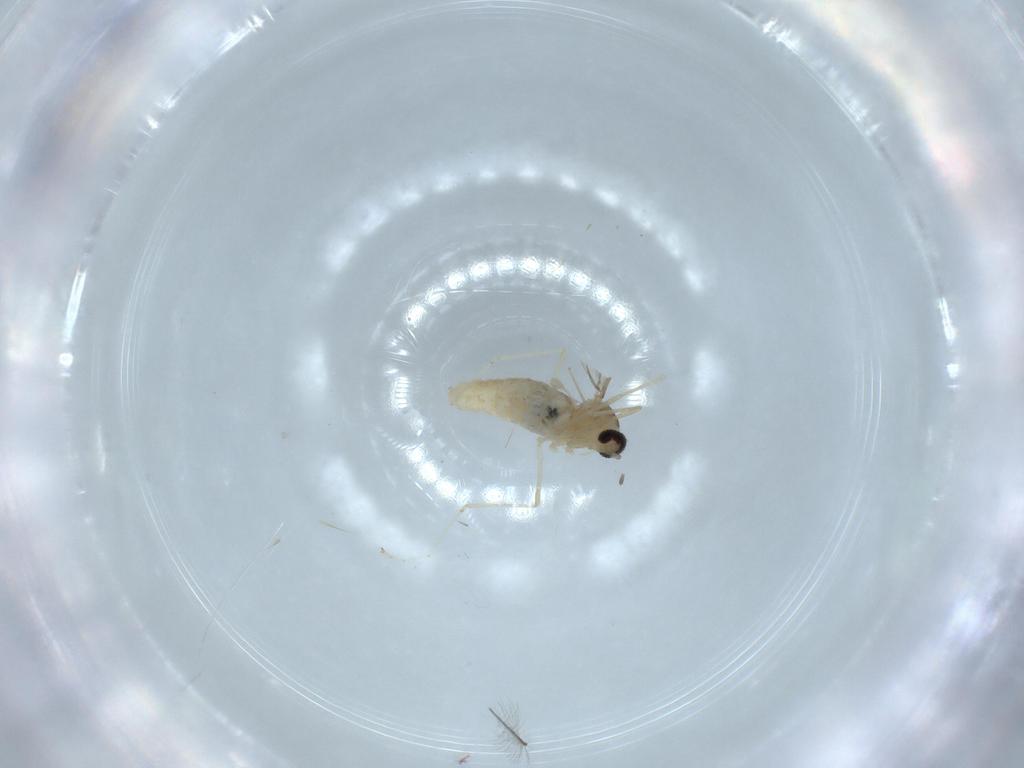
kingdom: Animalia
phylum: Arthropoda
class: Insecta
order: Diptera
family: Cecidomyiidae
